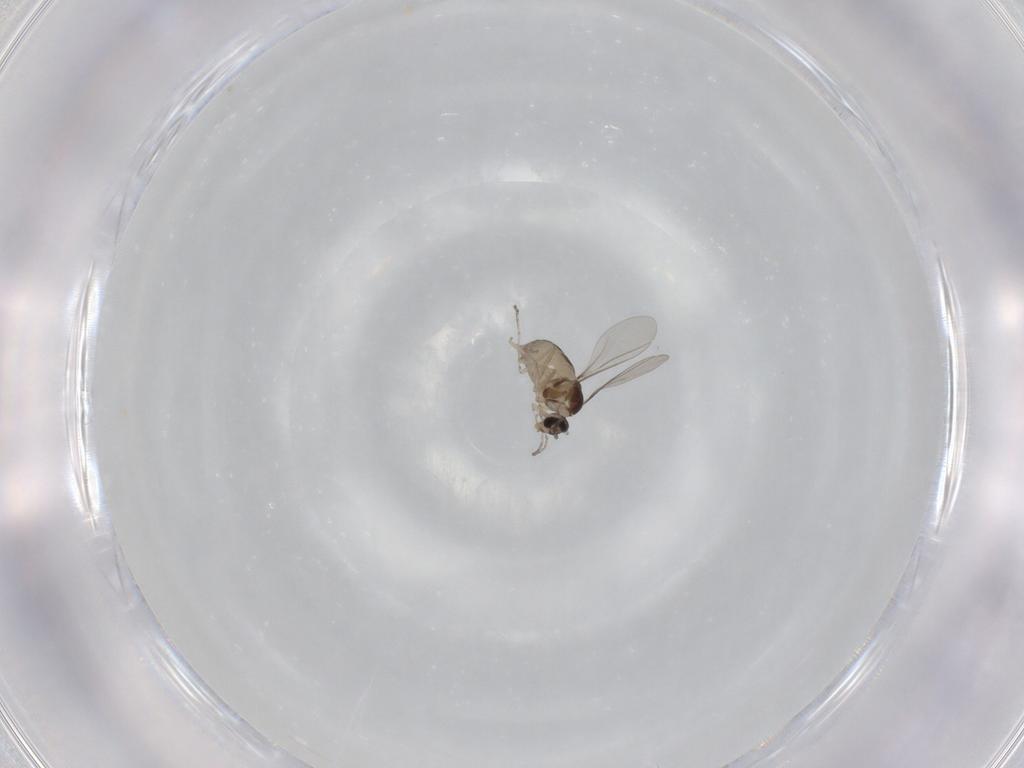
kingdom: Animalia
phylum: Arthropoda
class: Insecta
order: Diptera
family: Cecidomyiidae
